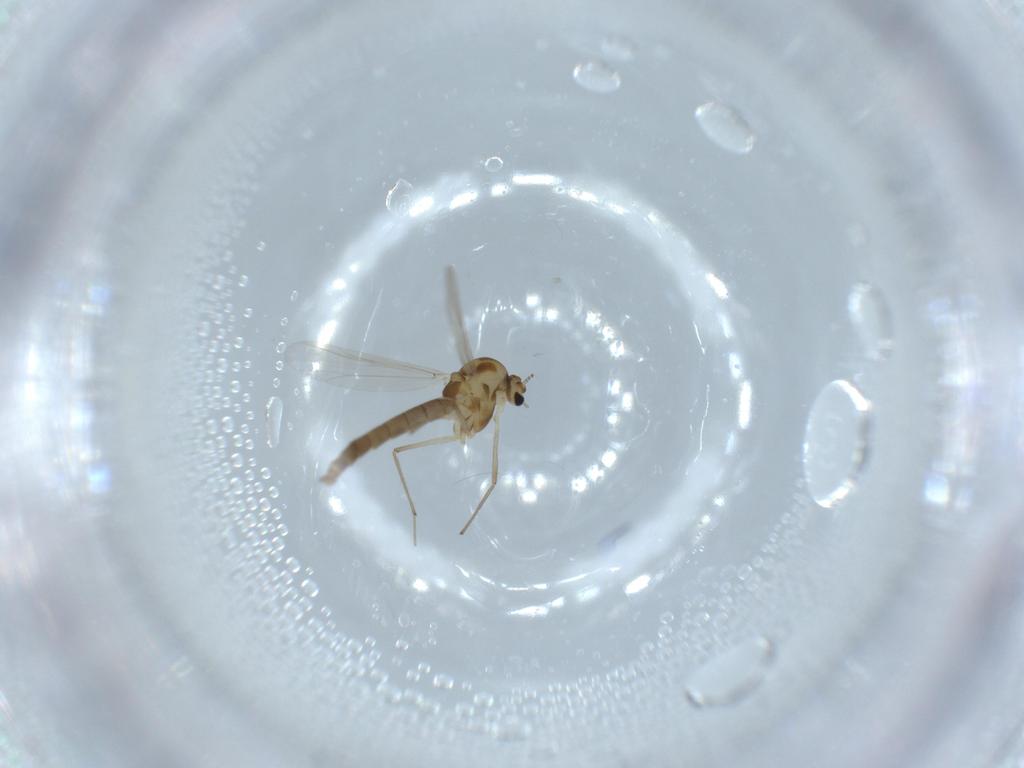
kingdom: Animalia
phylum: Arthropoda
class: Insecta
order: Diptera
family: Chironomidae
